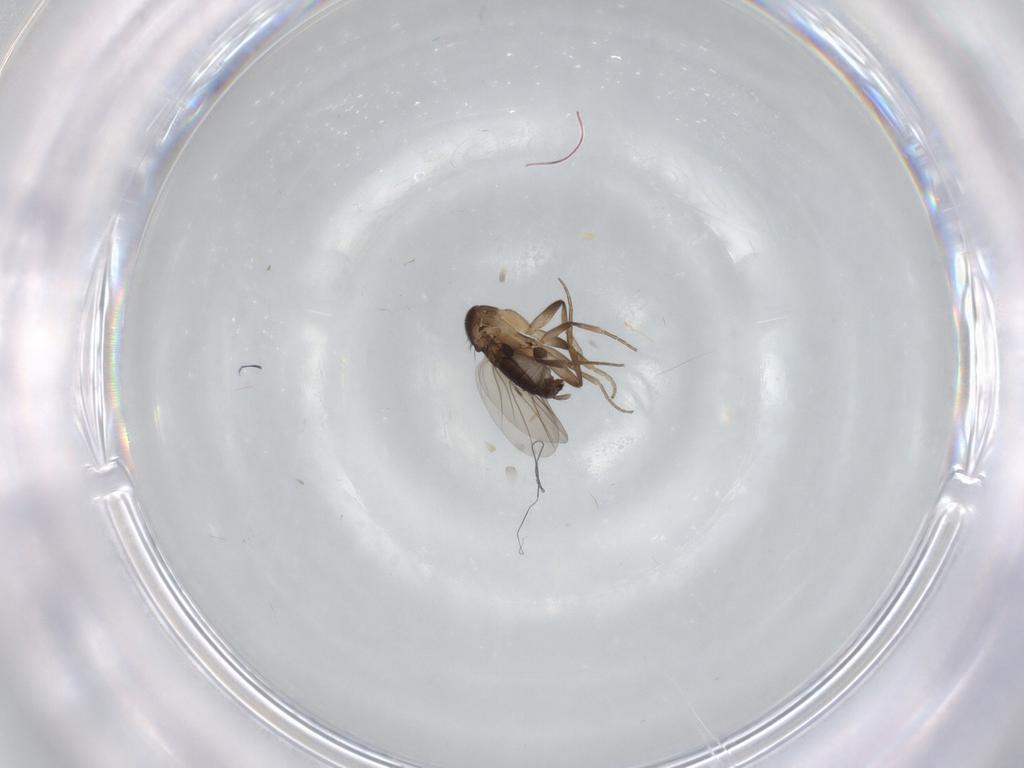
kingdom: Animalia
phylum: Arthropoda
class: Insecta
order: Diptera
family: Phoridae
